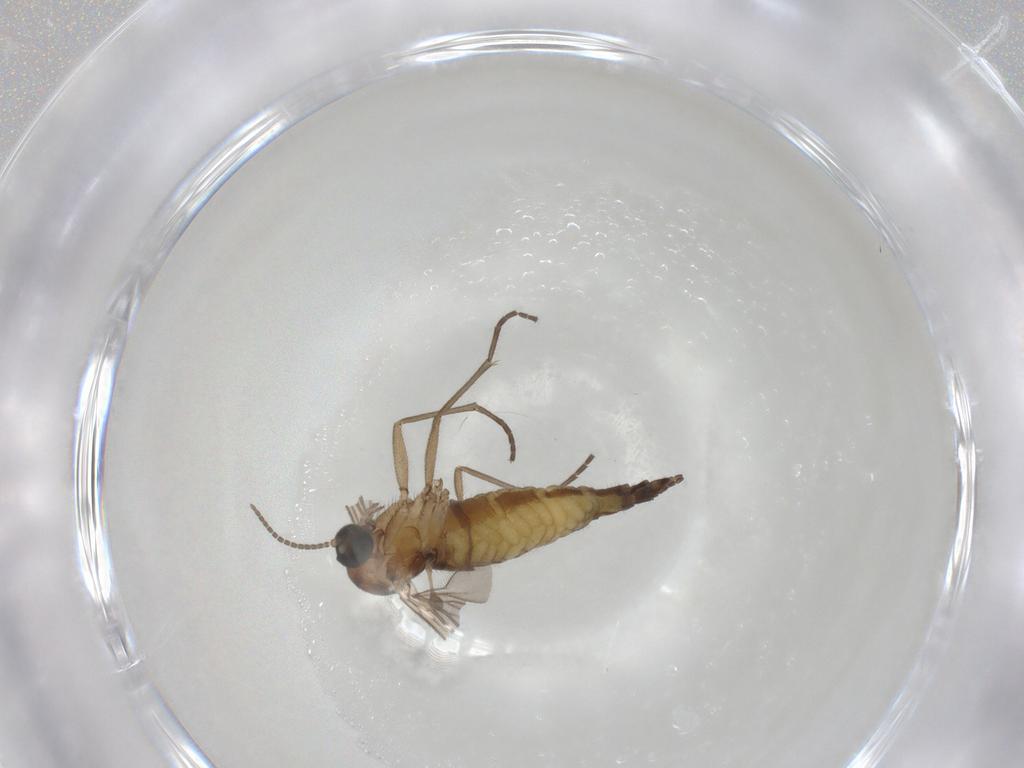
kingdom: Animalia
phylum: Arthropoda
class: Insecta
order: Diptera
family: Sciaridae
